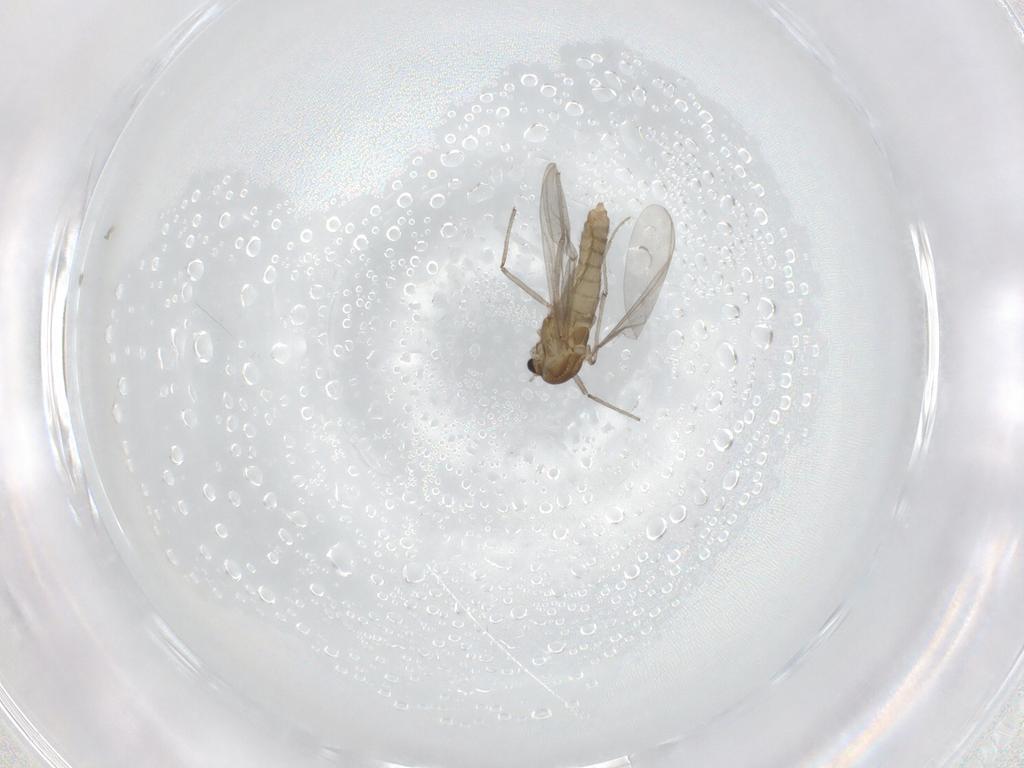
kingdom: Animalia
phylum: Arthropoda
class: Insecta
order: Diptera
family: Chironomidae
